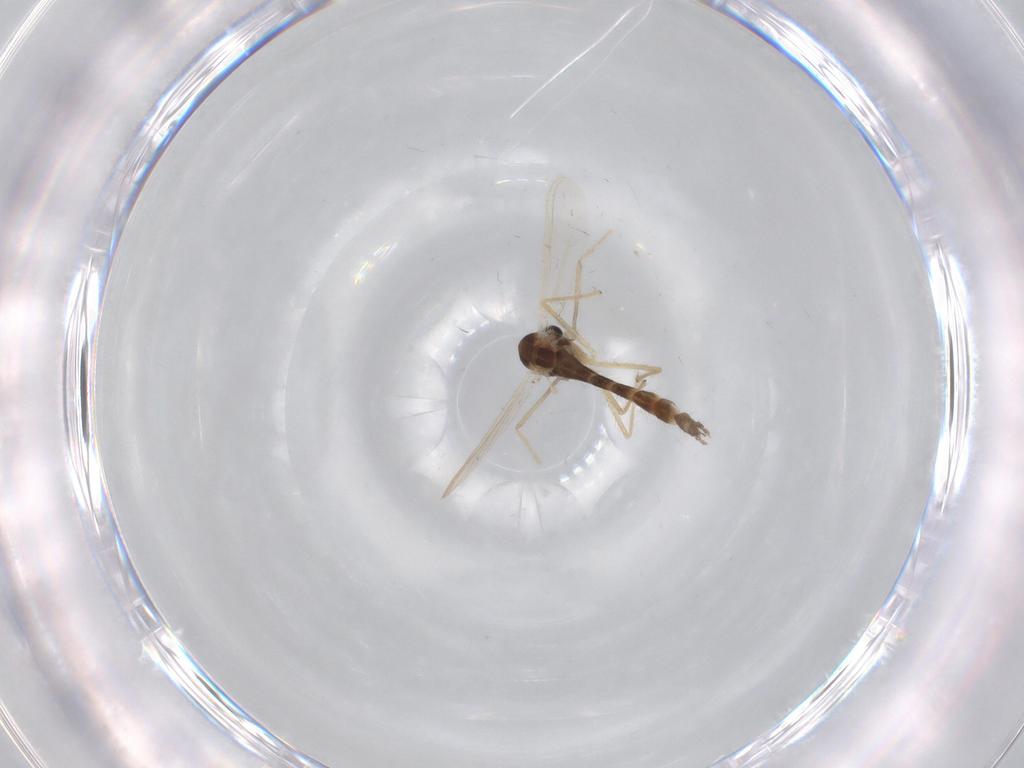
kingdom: Animalia
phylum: Arthropoda
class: Insecta
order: Diptera
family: Chironomidae
